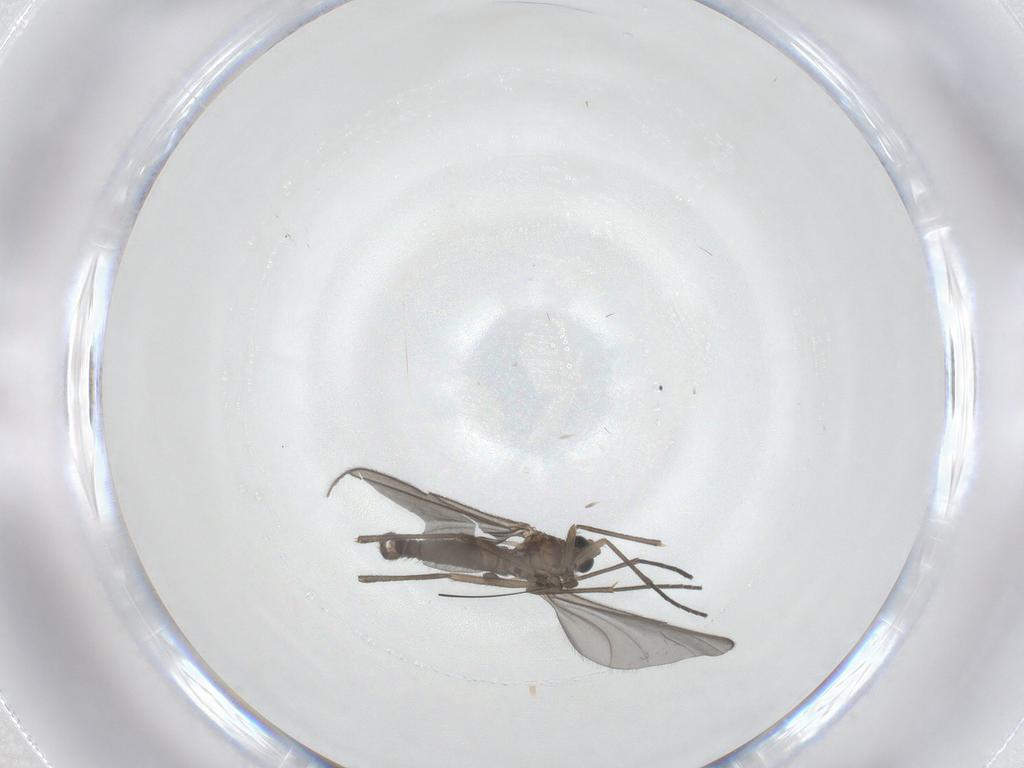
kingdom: Animalia
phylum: Arthropoda
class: Insecta
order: Diptera
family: Sciaridae
